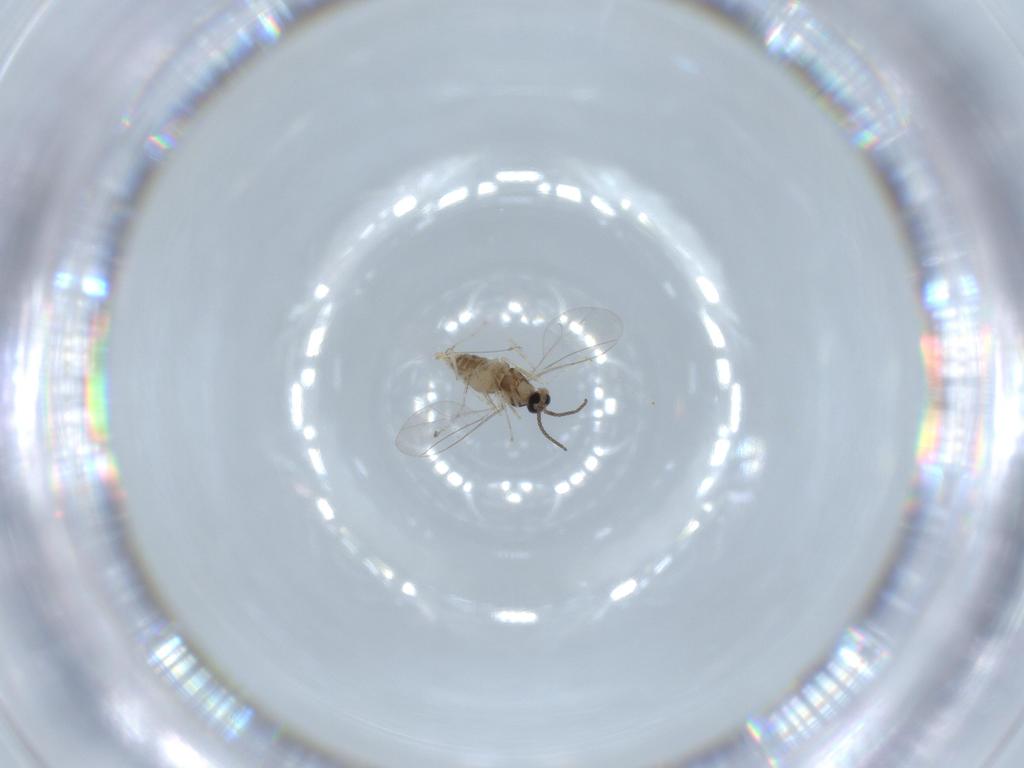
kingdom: Animalia
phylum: Arthropoda
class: Insecta
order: Diptera
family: Cecidomyiidae
